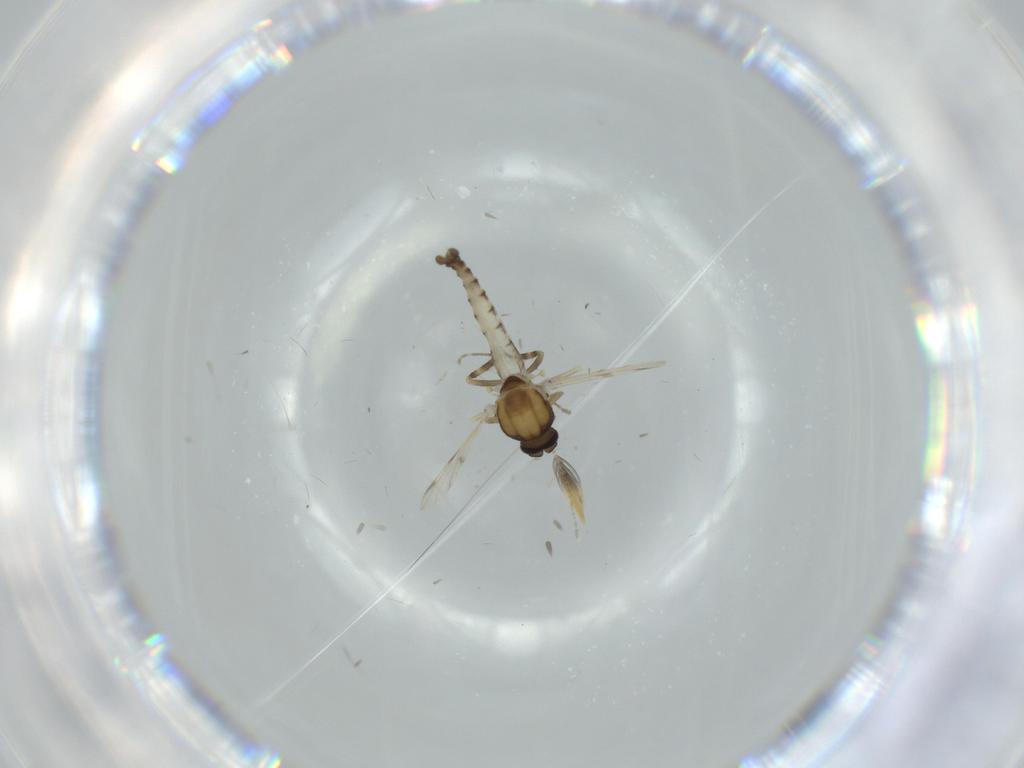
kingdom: Animalia
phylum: Arthropoda
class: Insecta
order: Diptera
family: Ceratopogonidae
